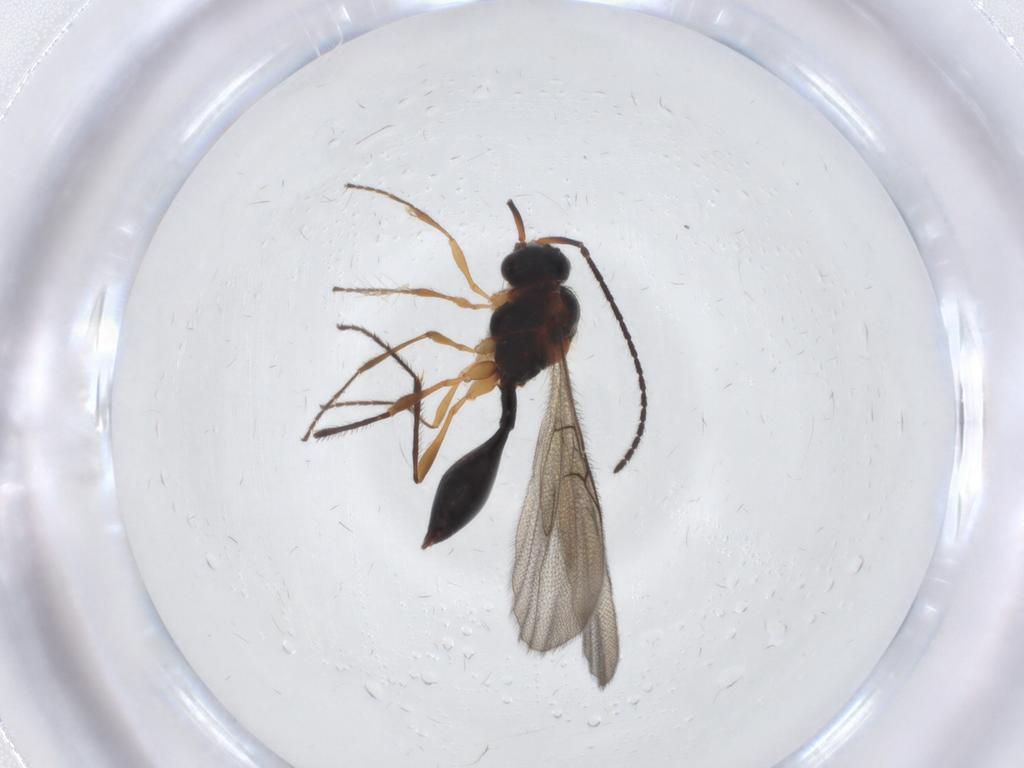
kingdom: Animalia
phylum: Arthropoda
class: Insecta
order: Hymenoptera
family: Diapriidae
